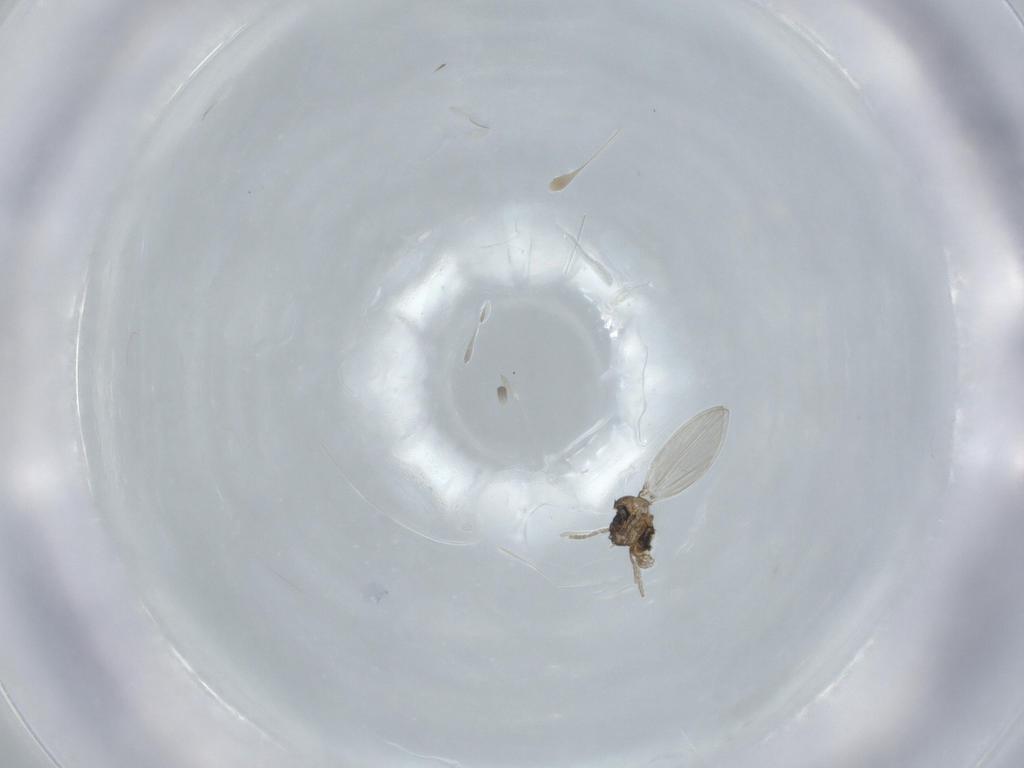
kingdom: Animalia
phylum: Arthropoda
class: Insecta
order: Diptera
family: Psychodidae
